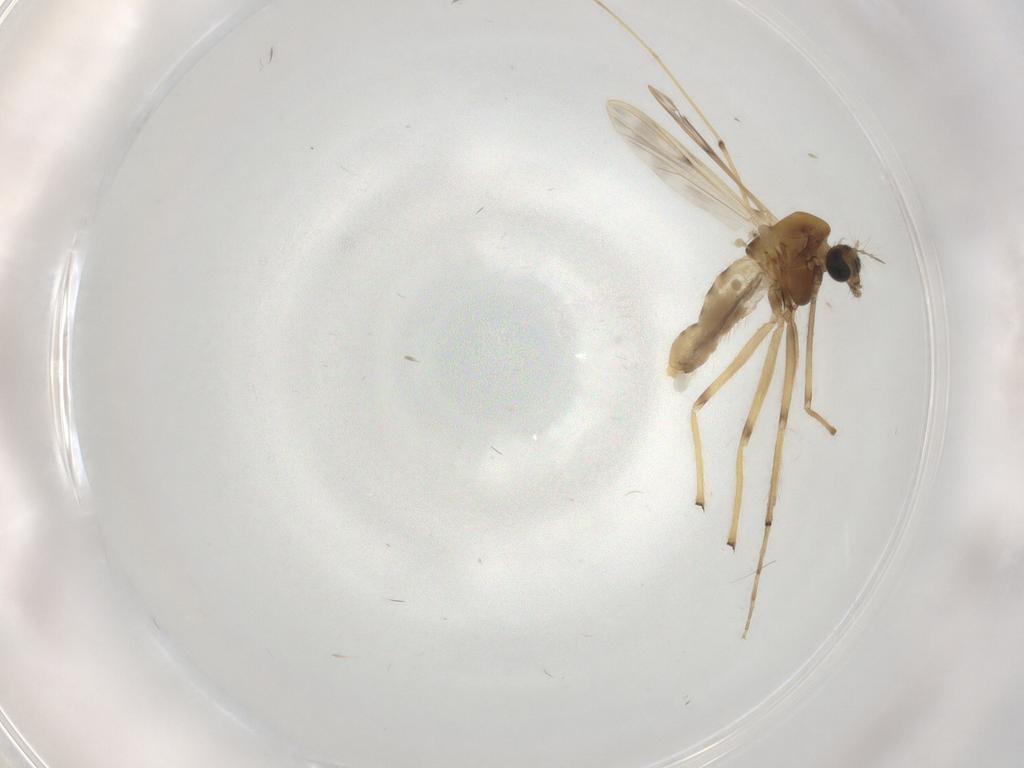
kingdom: Animalia
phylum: Arthropoda
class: Insecta
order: Diptera
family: Chironomidae
